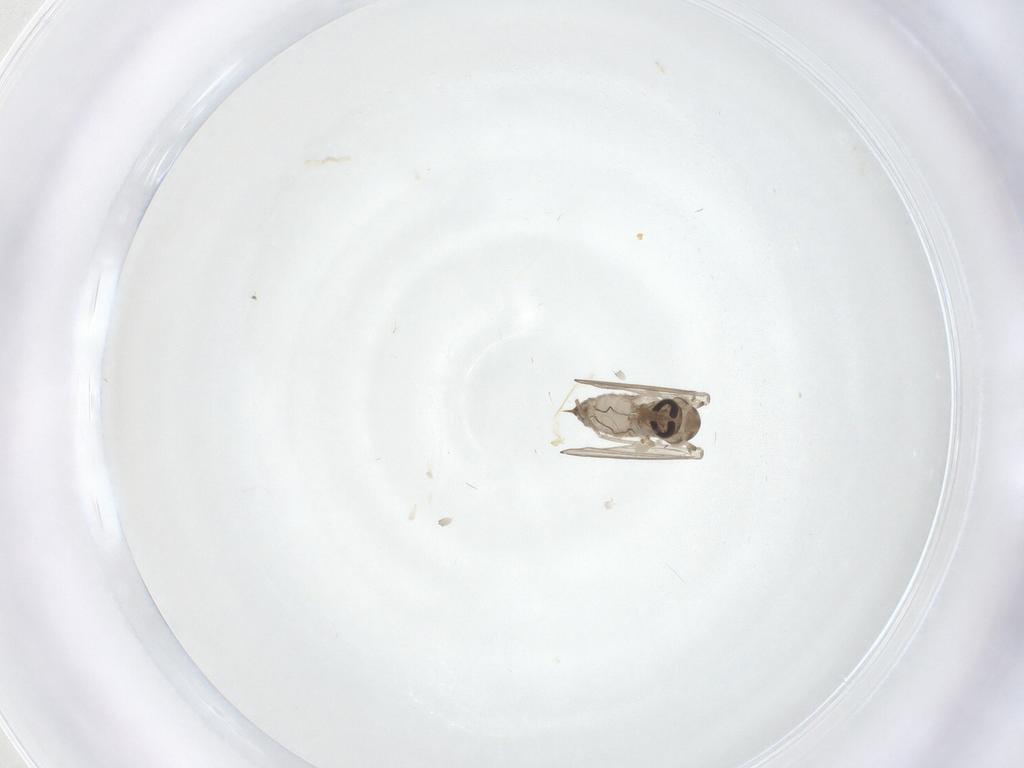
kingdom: Animalia
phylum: Arthropoda
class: Insecta
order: Diptera
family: Psychodidae
